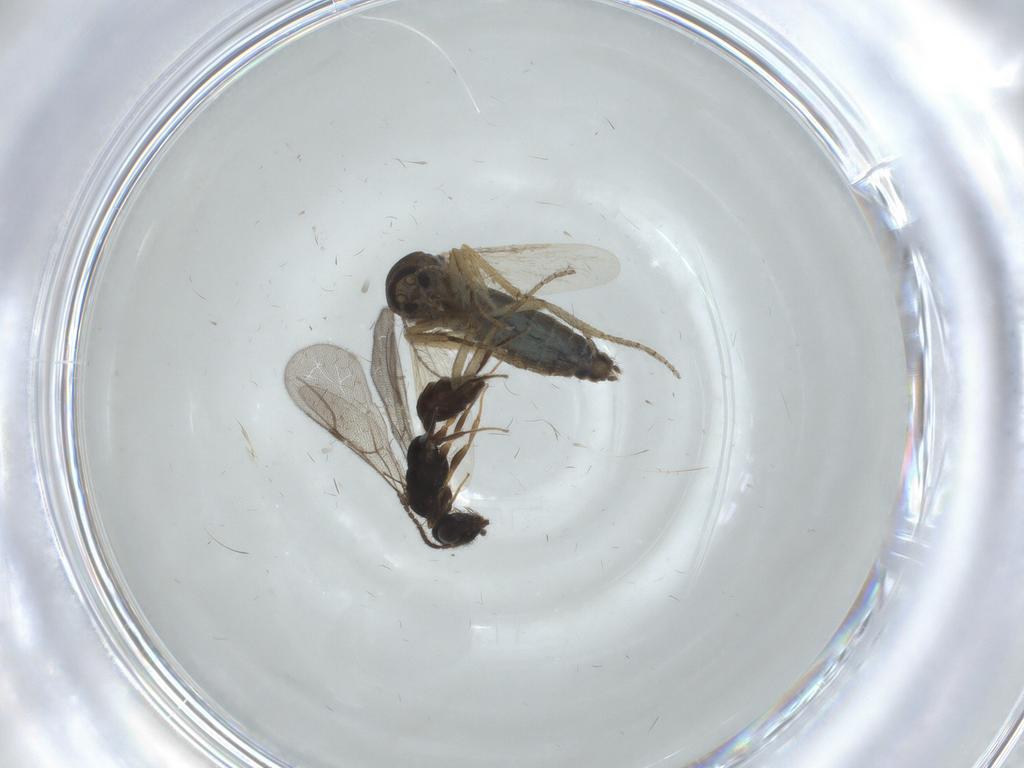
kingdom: Animalia
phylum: Arthropoda
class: Insecta
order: Diptera
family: Ceratopogonidae
